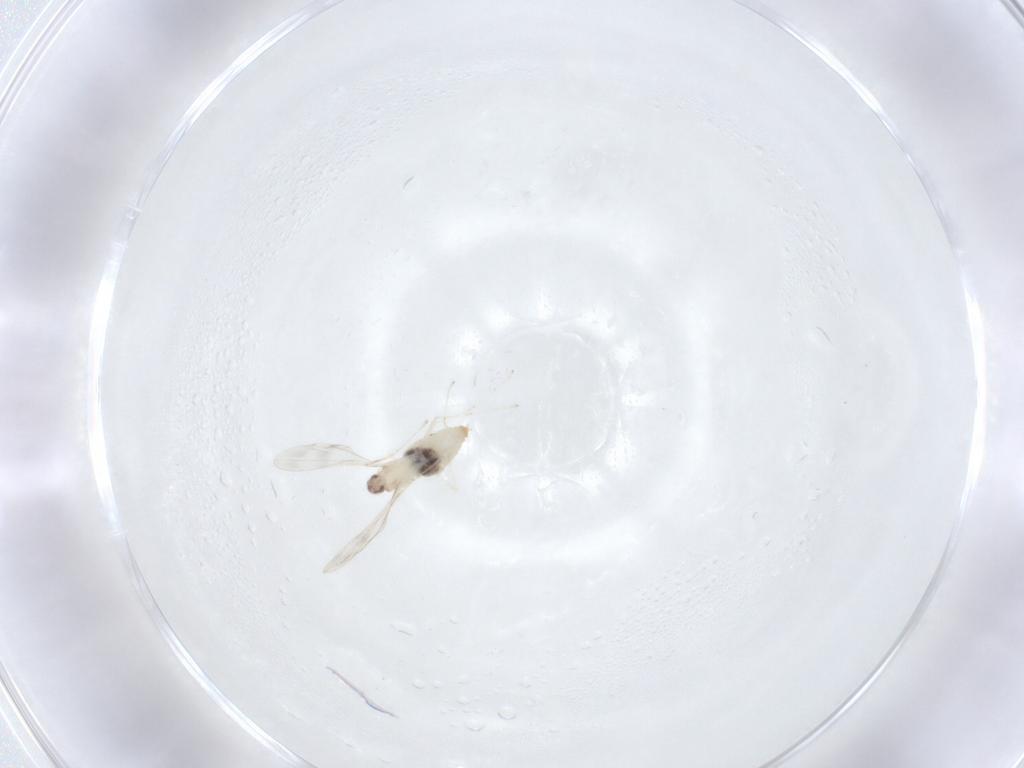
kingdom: Animalia
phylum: Arthropoda
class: Insecta
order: Diptera
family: Cecidomyiidae
